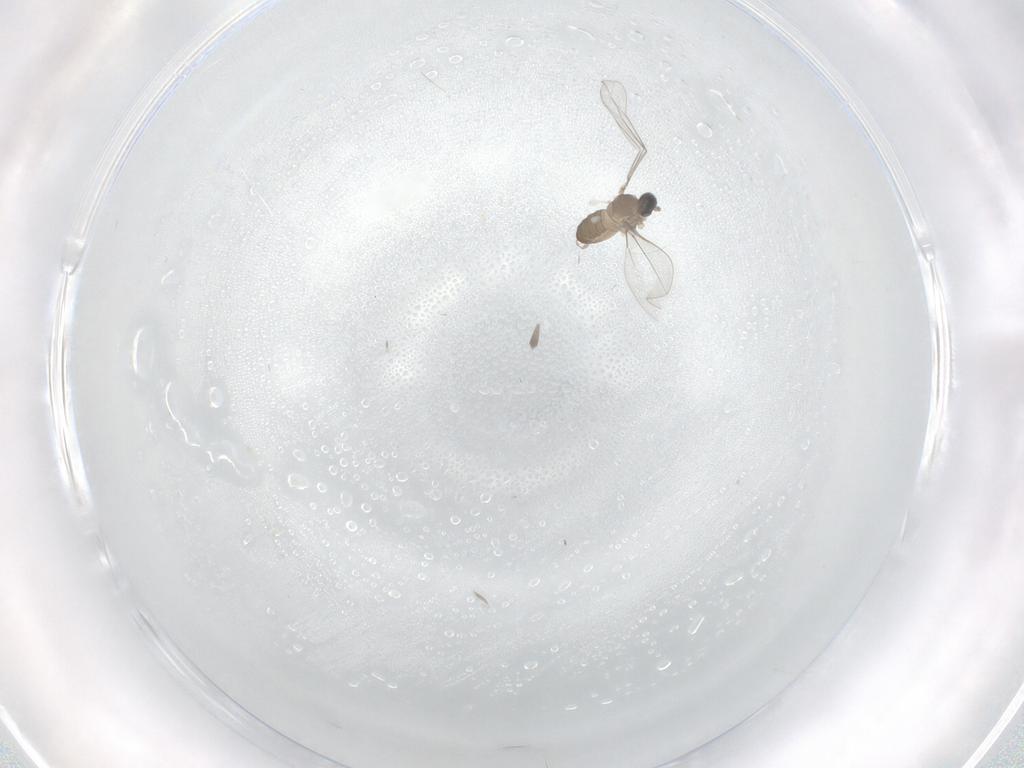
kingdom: Animalia
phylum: Arthropoda
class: Insecta
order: Diptera
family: Cecidomyiidae
